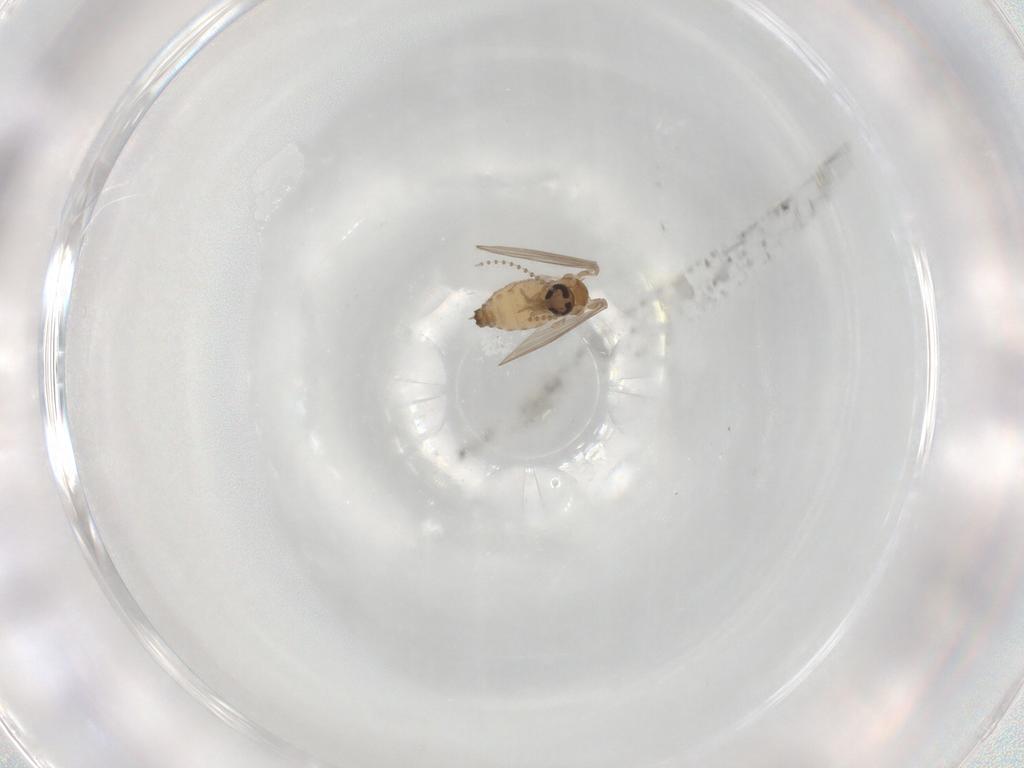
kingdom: Animalia
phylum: Arthropoda
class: Insecta
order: Diptera
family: Psychodidae
